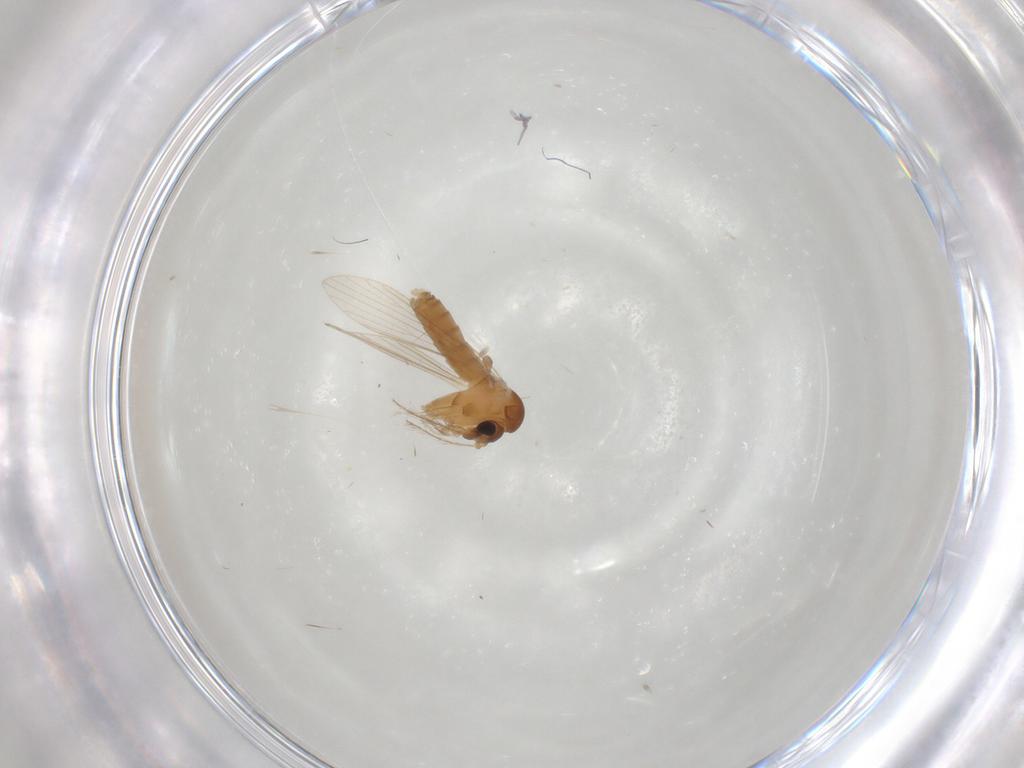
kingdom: Animalia
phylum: Arthropoda
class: Insecta
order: Diptera
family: Psychodidae
